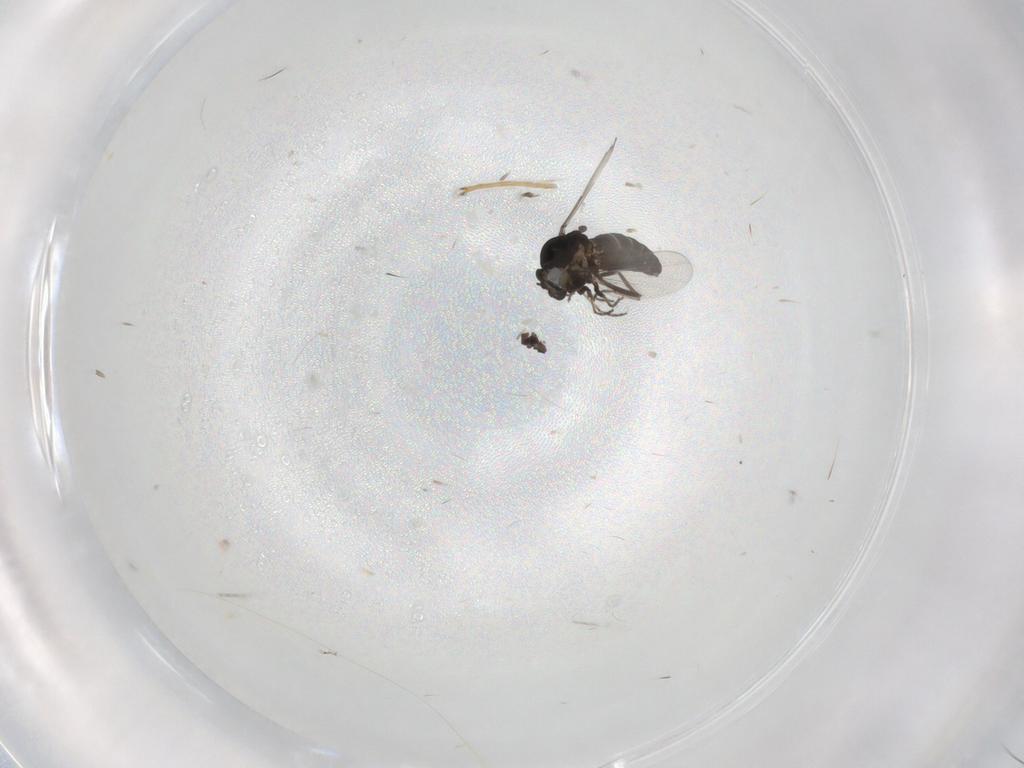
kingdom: Animalia
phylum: Arthropoda
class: Insecta
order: Diptera
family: Cecidomyiidae
